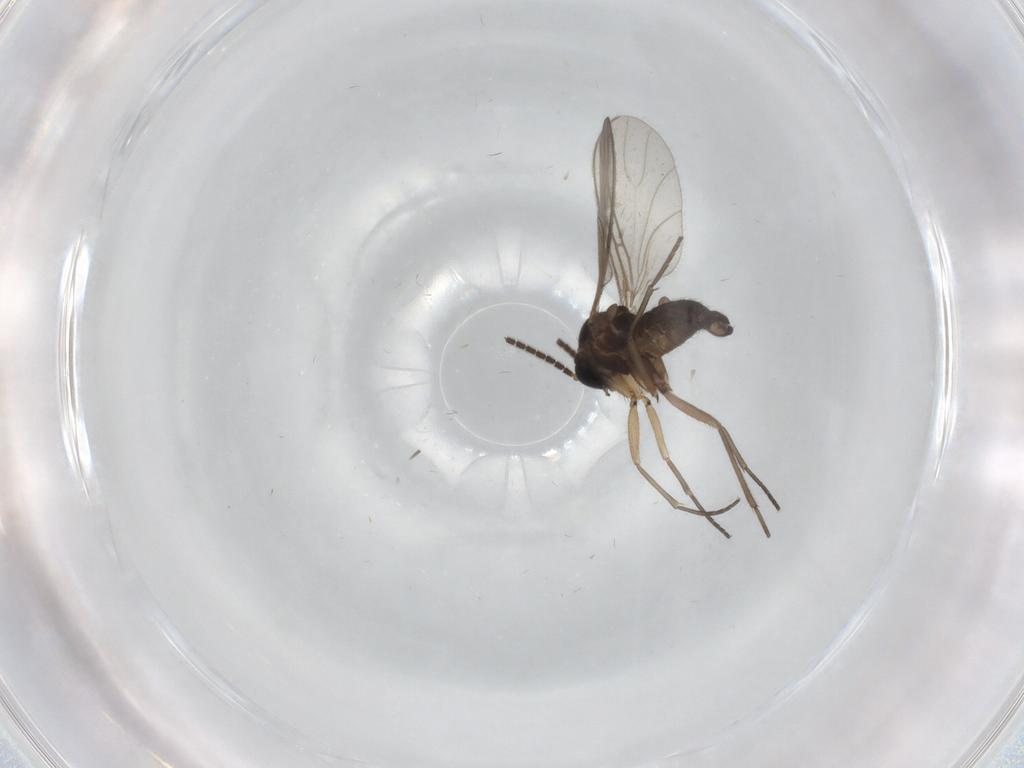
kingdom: Animalia
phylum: Arthropoda
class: Insecta
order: Diptera
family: Sciaridae
